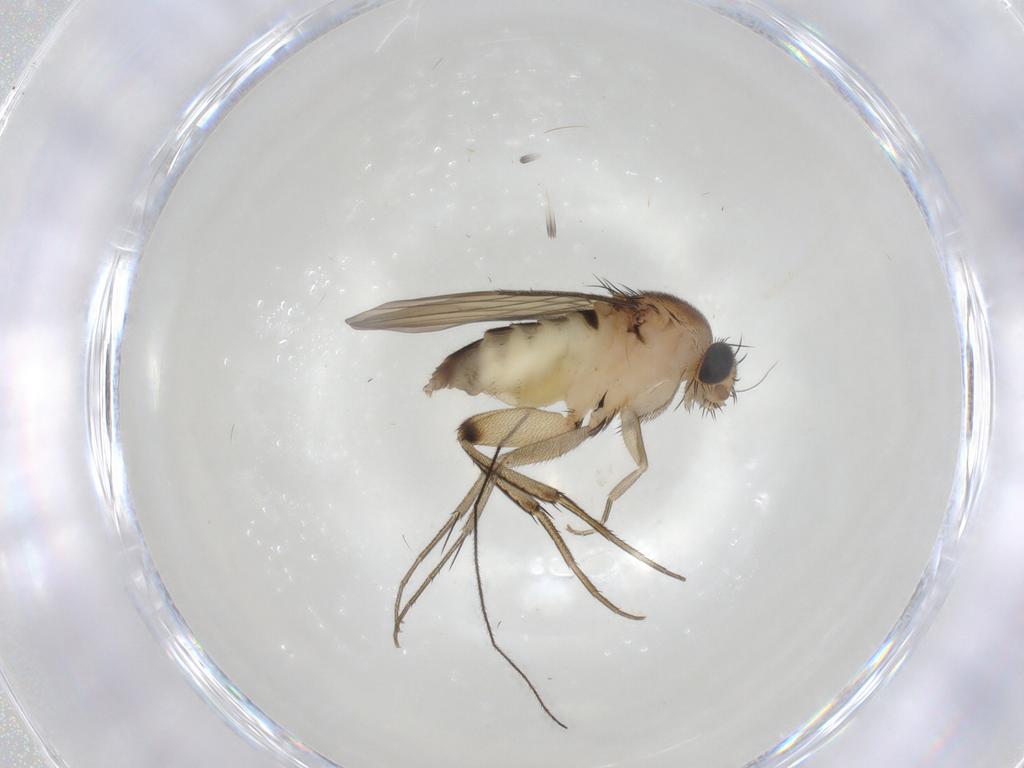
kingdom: Animalia
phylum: Arthropoda
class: Insecta
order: Diptera
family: Phoridae
